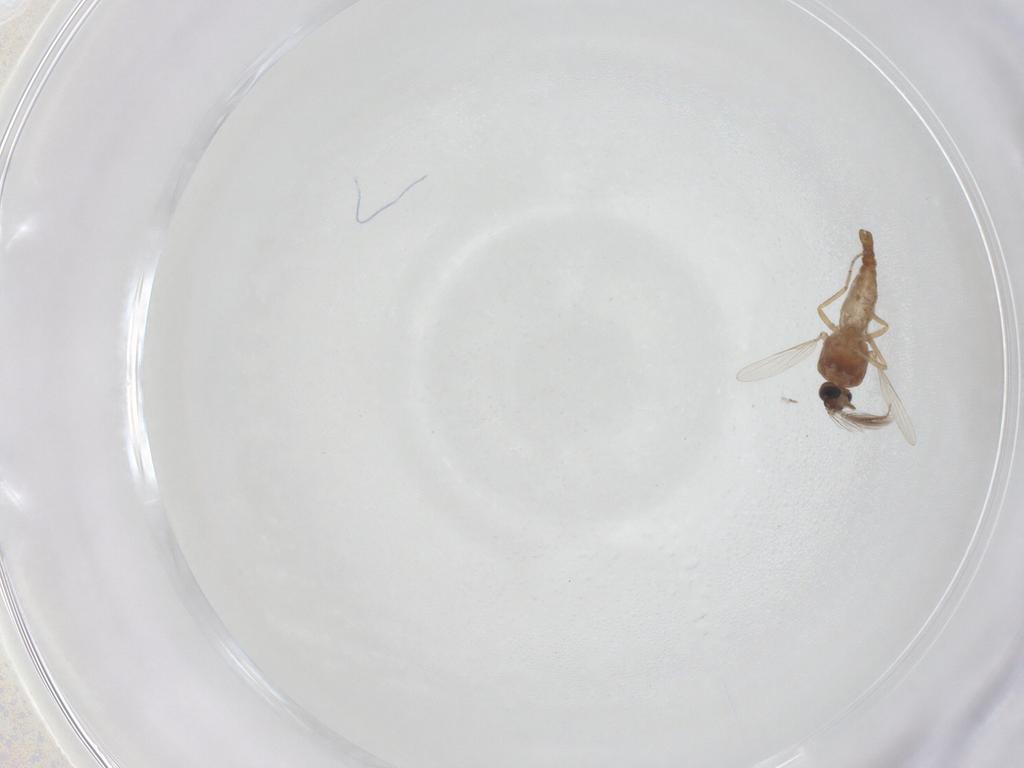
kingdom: Animalia
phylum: Arthropoda
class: Insecta
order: Diptera
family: Ceratopogonidae
